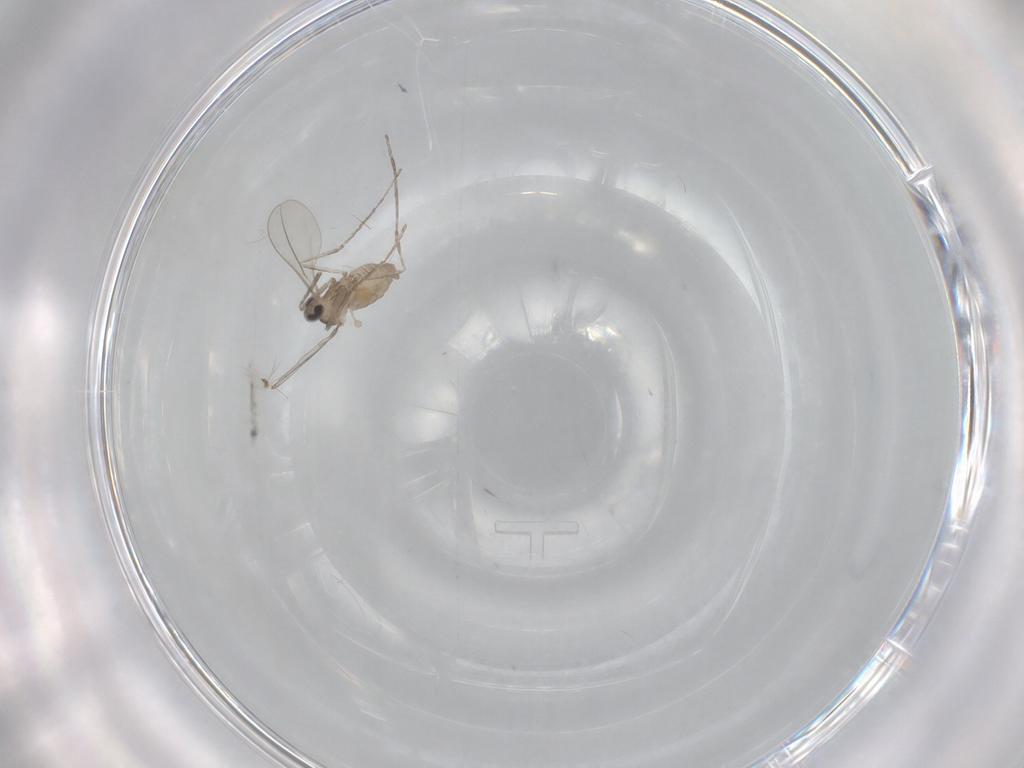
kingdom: Animalia
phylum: Arthropoda
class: Insecta
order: Diptera
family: Cecidomyiidae
